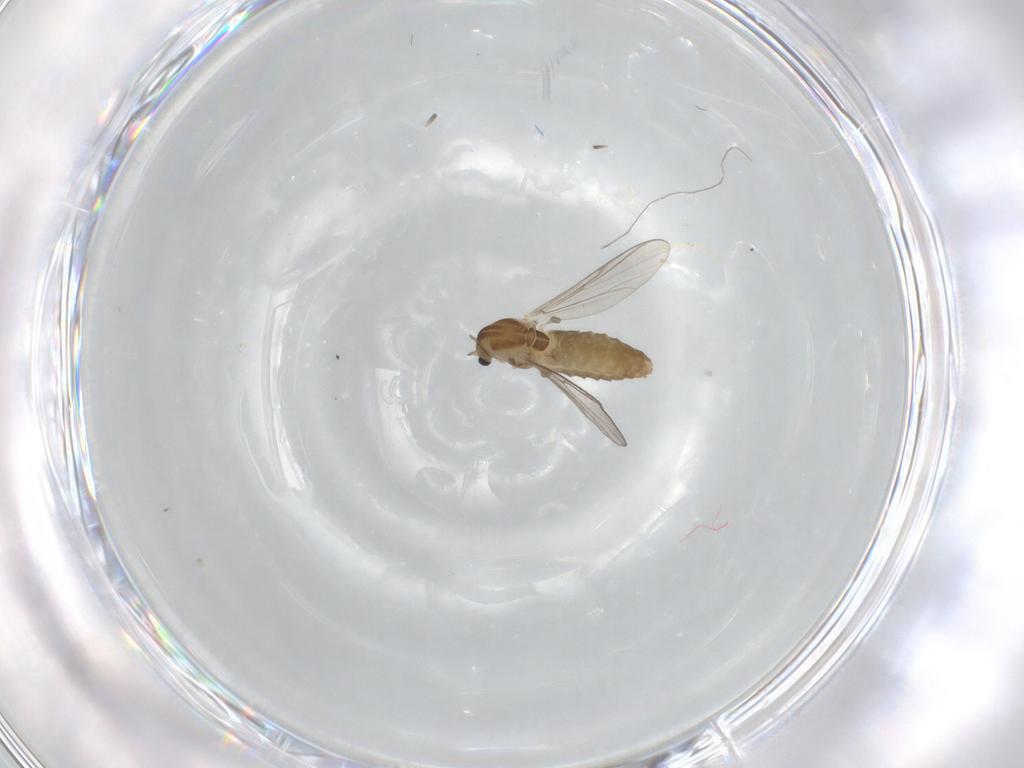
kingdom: Animalia
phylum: Arthropoda
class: Insecta
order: Diptera
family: Chironomidae
